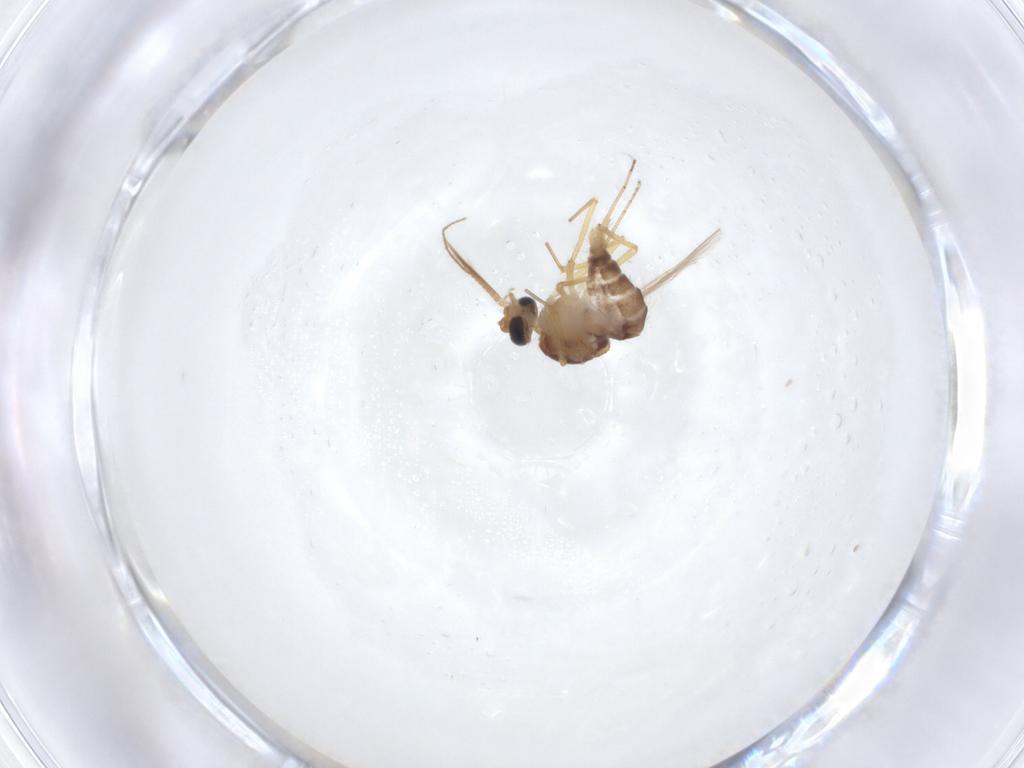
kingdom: Animalia
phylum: Arthropoda
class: Insecta
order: Diptera
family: Ceratopogonidae
